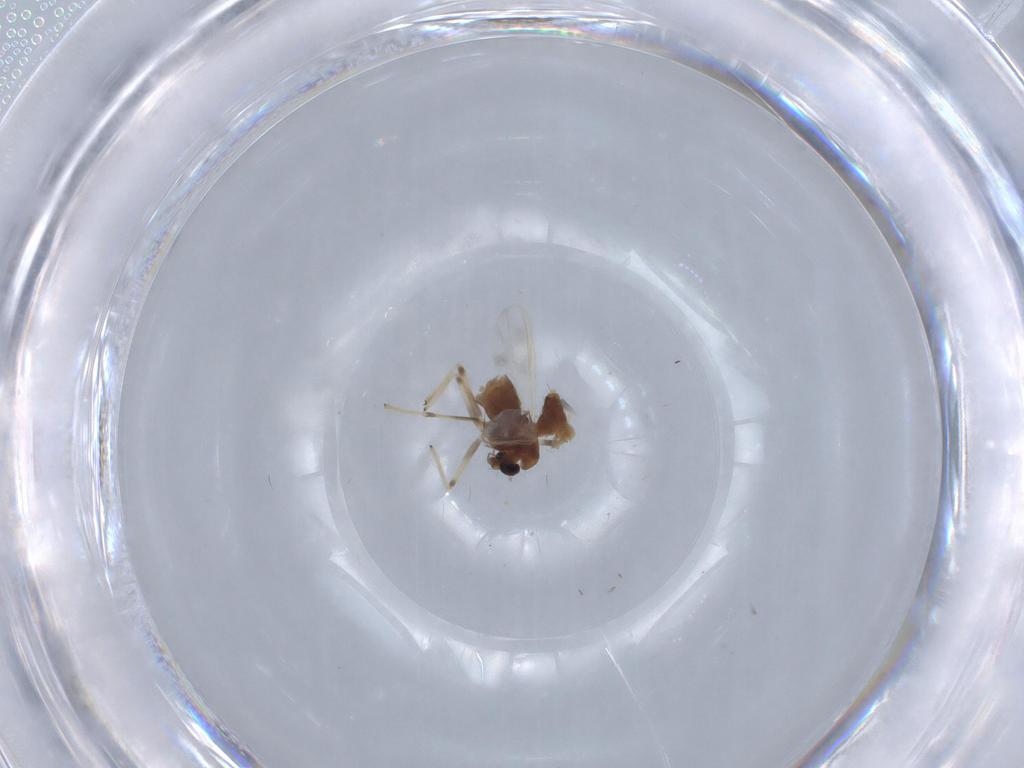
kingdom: Animalia
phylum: Arthropoda
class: Insecta
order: Diptera
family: Chironomidae
